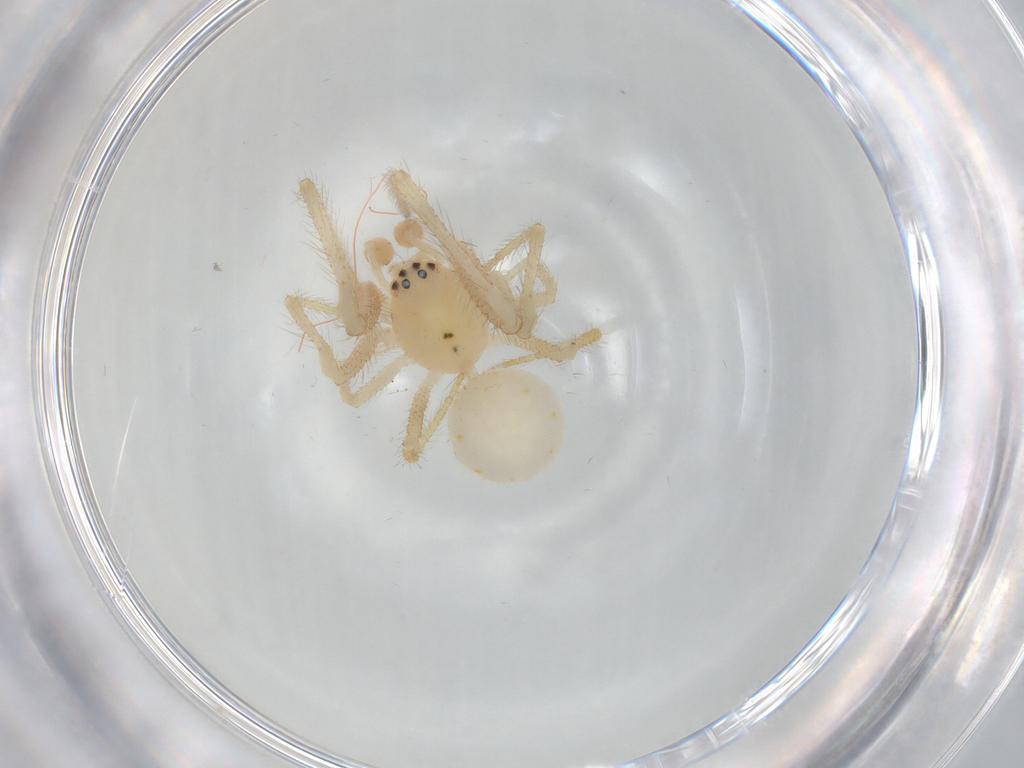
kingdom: Animalia
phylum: Arthropoda
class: Arachnida
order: Araneae
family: Theridiidae
